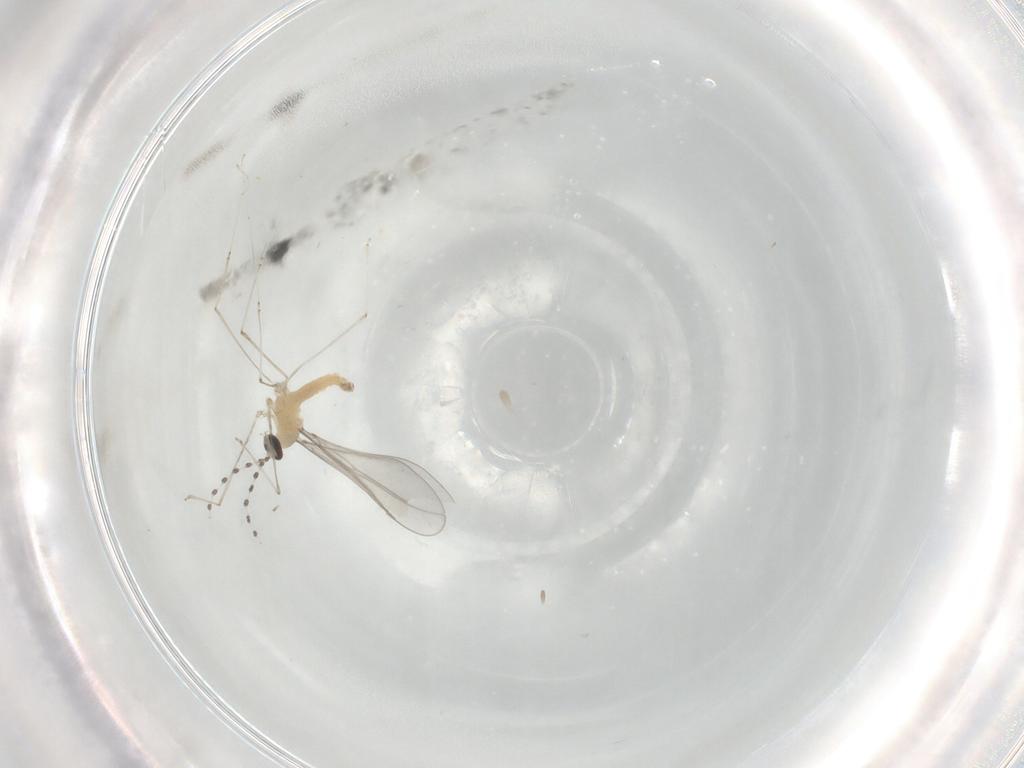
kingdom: Animalia
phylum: Arthropoda
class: Insecta
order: Diptera
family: Cecidomyiidae
